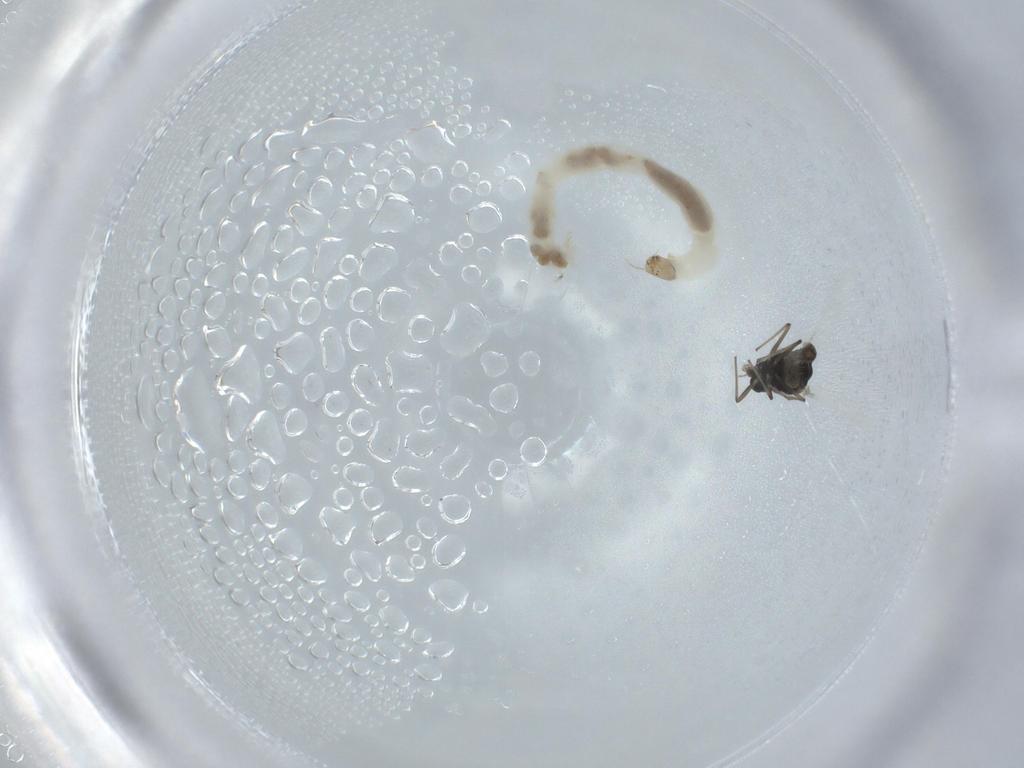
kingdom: Animalia
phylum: Arthropoda
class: Insecta
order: Diptera
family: Chironomidae
